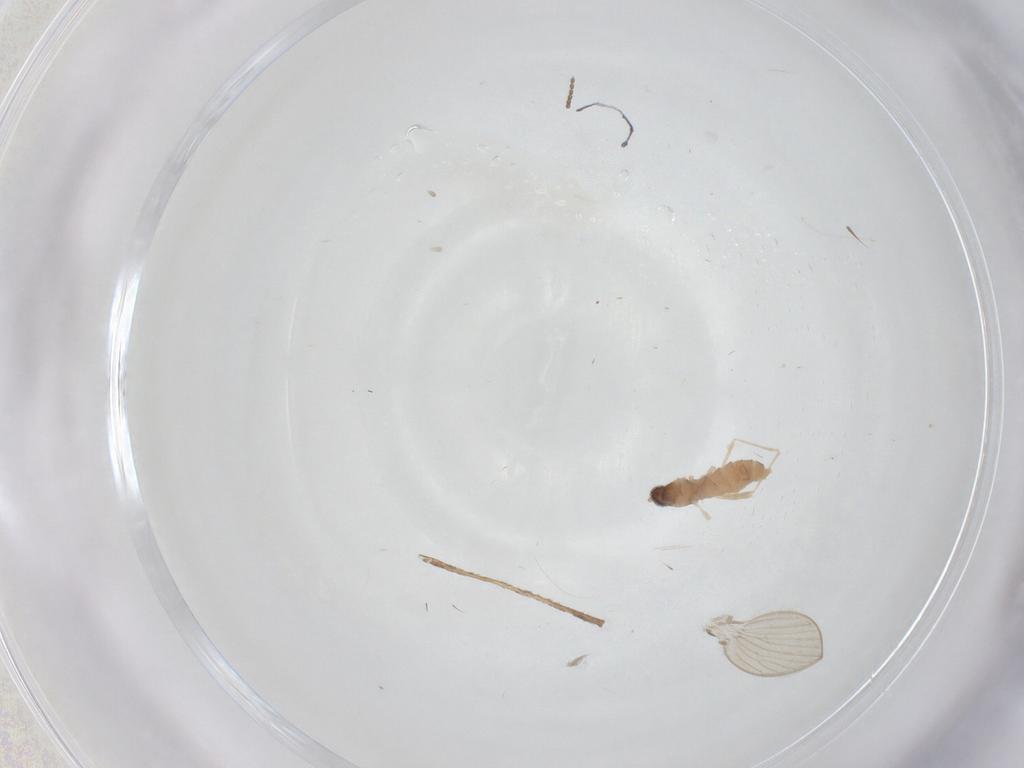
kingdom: Animalia
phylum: Arthropoda
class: Insecta
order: Diptera
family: Cecidomyiidae
